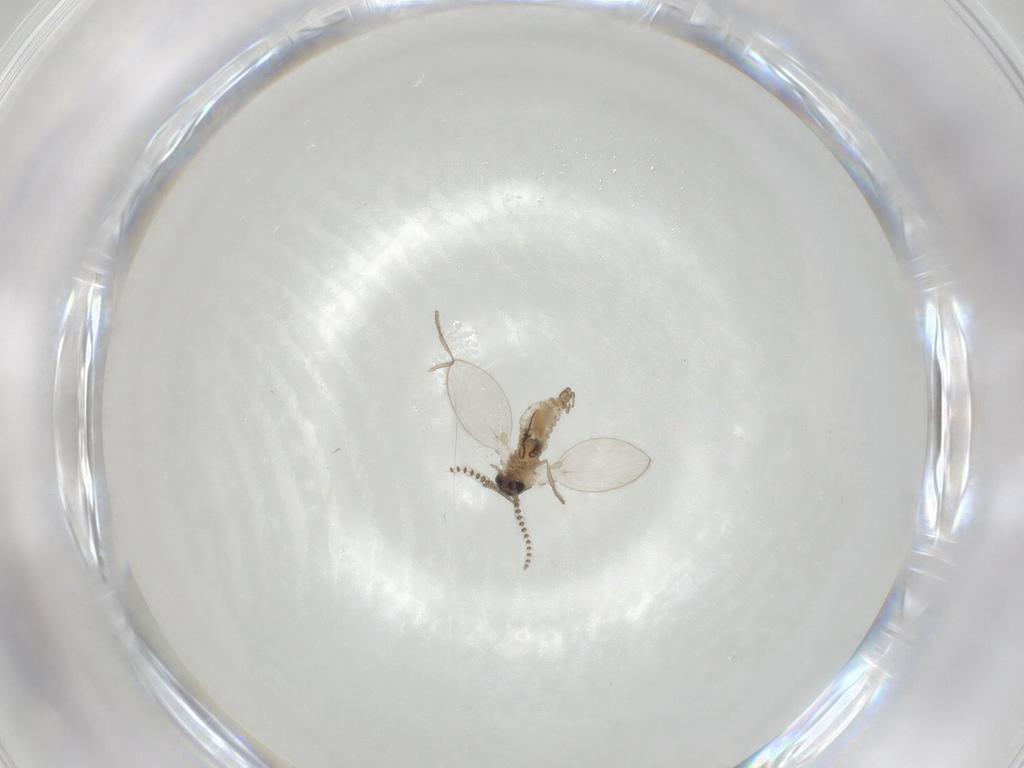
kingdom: Animalia
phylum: Arthropoda
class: Insecta
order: Diptera
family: Psychodidae
